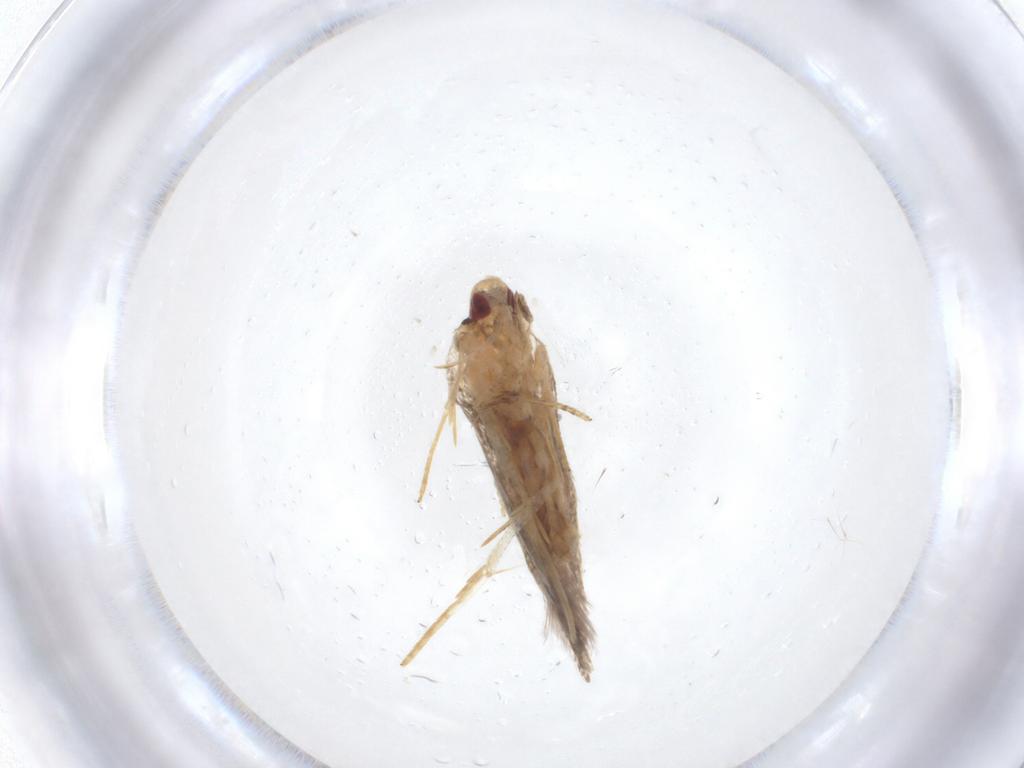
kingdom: Animalia
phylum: Arthropoda
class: Insecta
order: Lepidoptera
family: Cosmopterigidae
